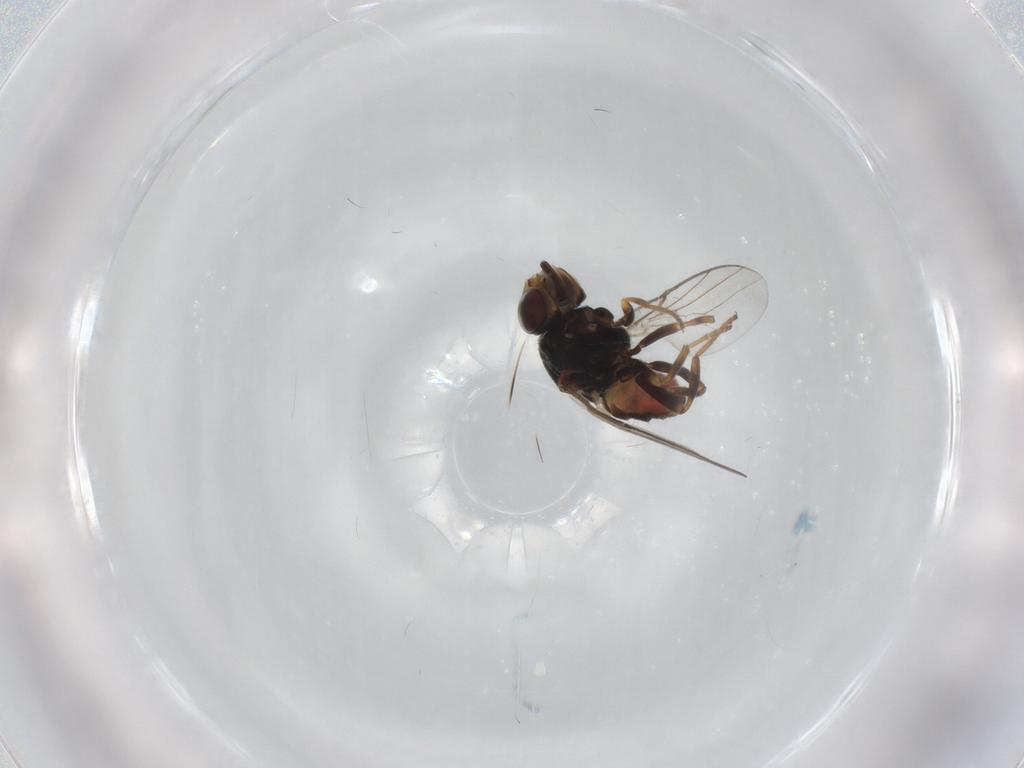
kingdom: Animalia
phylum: Arthropoda
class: Insecta
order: Diptera
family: Chloropidae
